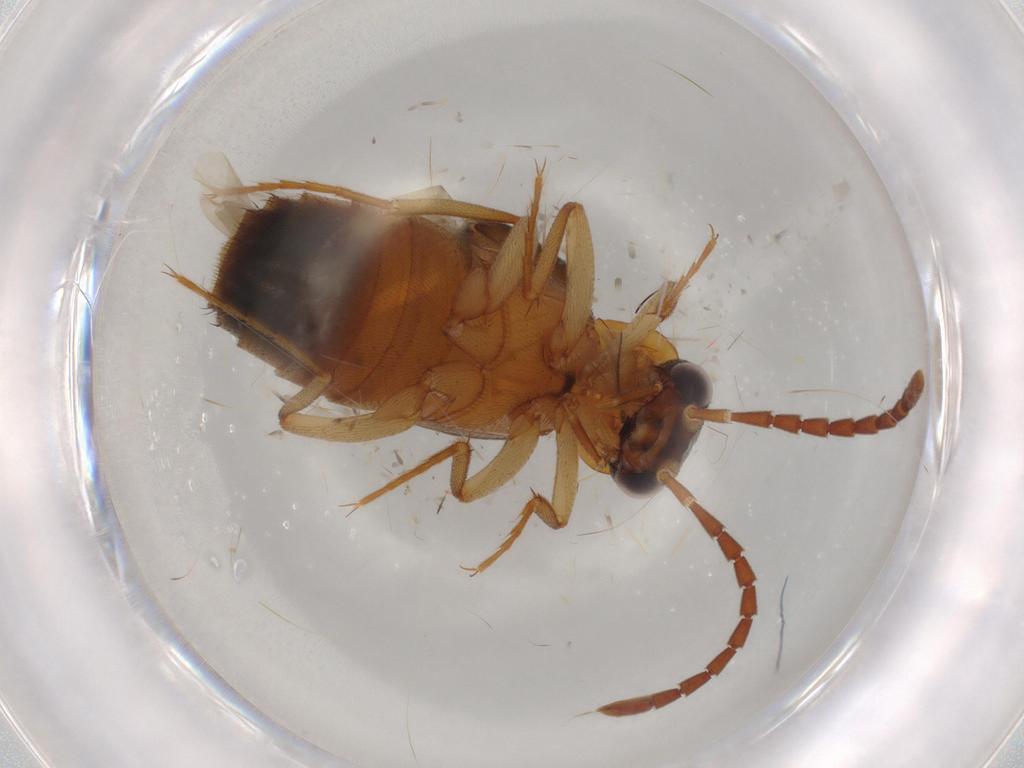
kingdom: Animalia
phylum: Arthropoda
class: Insecta
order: Coleoptera
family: Staphylinidae
